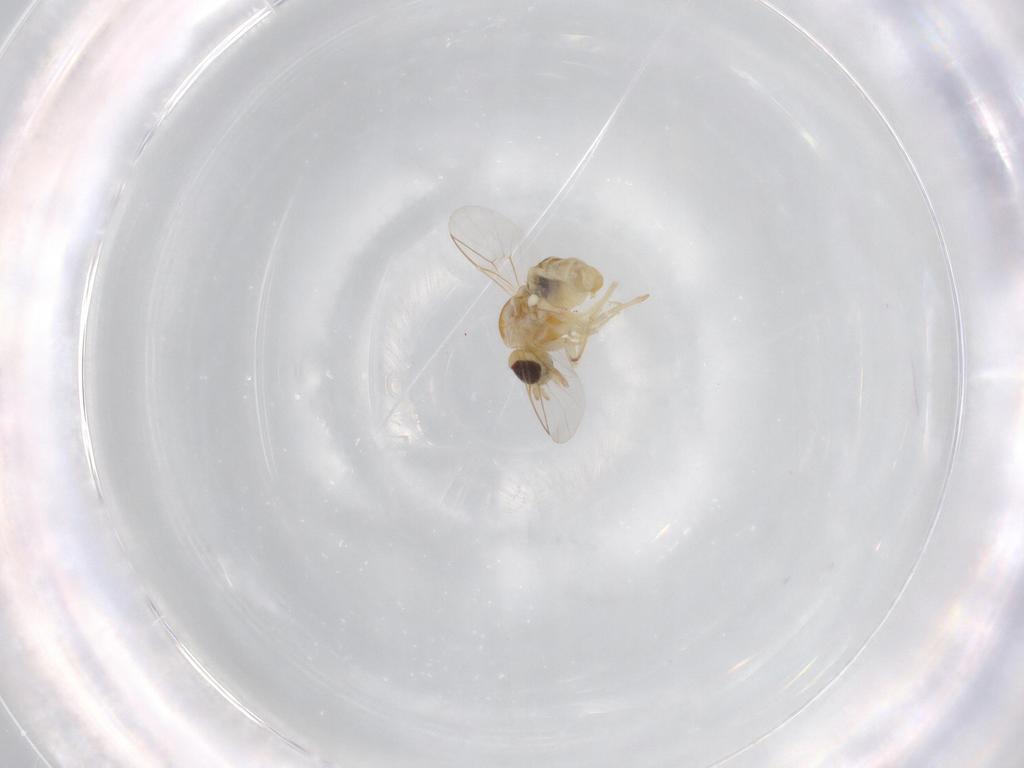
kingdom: Animalia
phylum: Arthropoda
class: Insecta
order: Diptera
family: Mythicomyiidae
